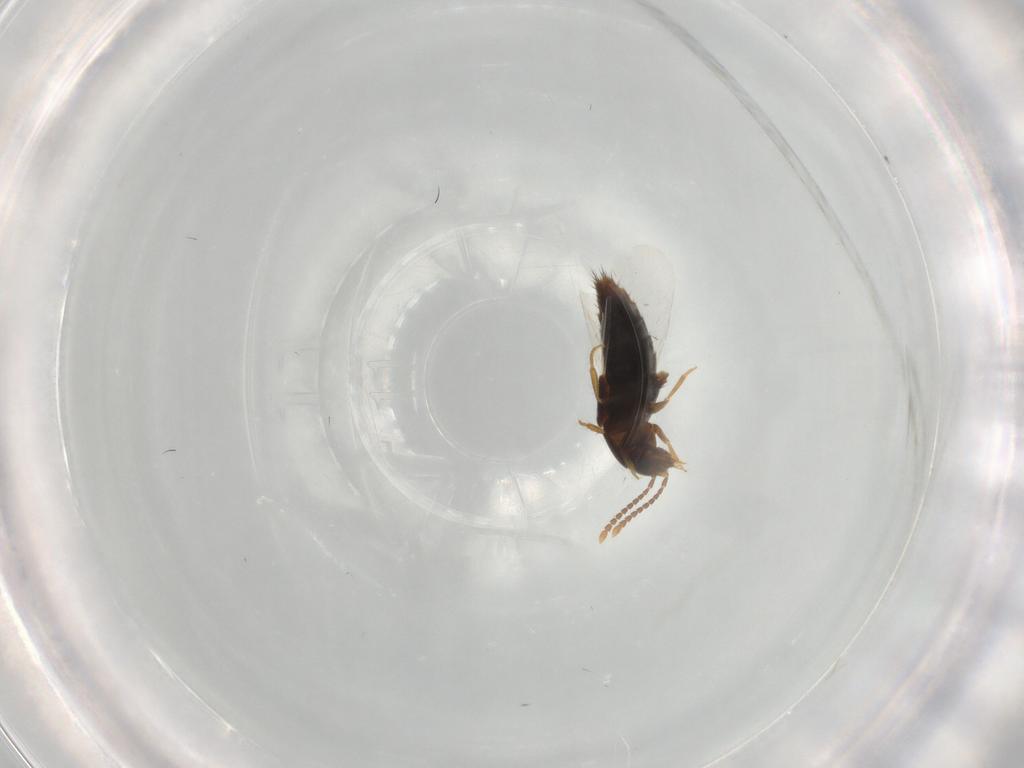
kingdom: Animalia
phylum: Arthropoda
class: Insecta
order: Coleoptera
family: Staphylinidae
